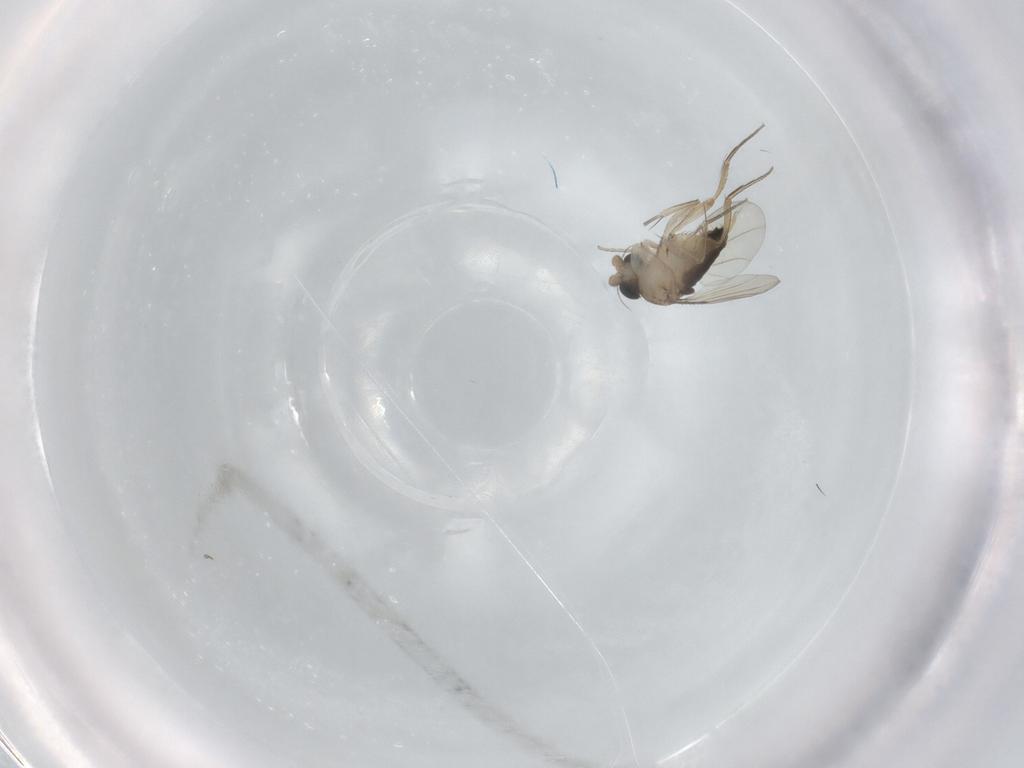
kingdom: Animalia
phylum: Arthropoda
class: Insecta
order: Diptera
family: Phoridae
